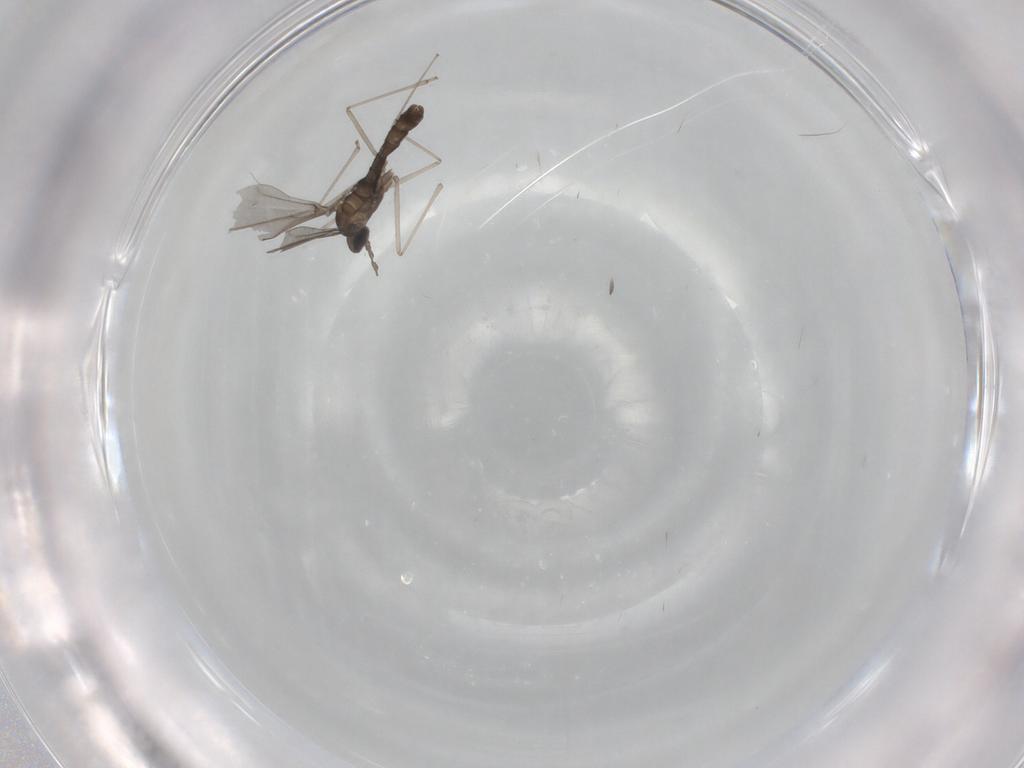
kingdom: Animalia
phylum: Arthropoda
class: Insecta
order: Diptera
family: Cecidomyiidae
